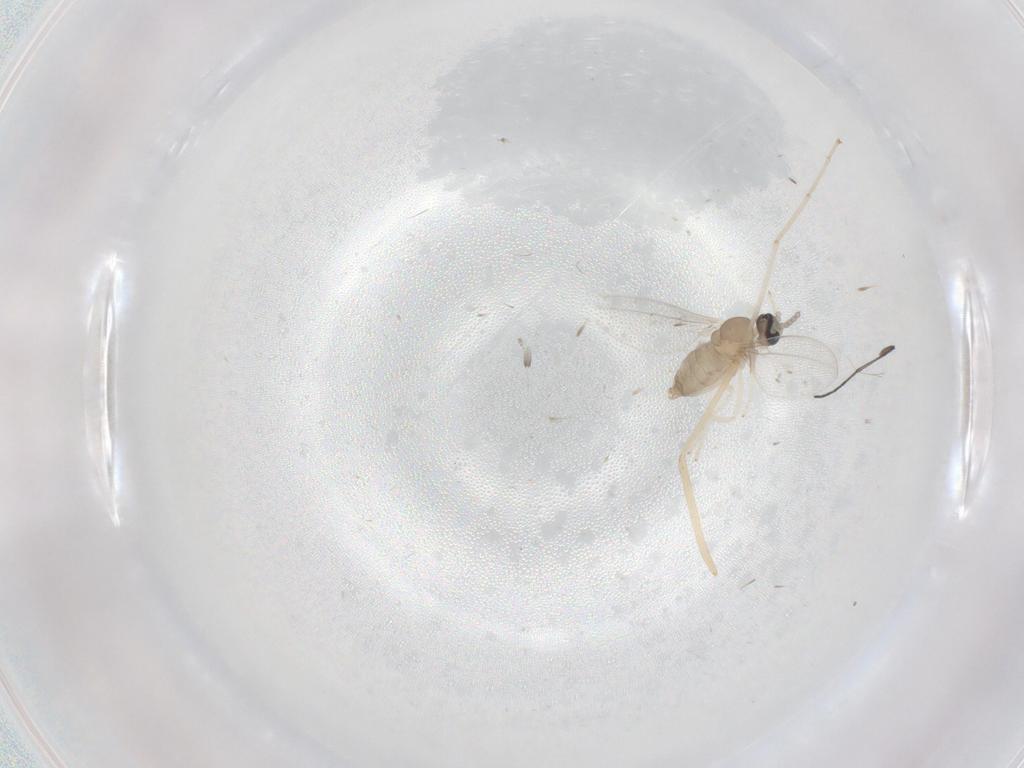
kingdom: Animalia
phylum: Arthropoda
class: Insecta
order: Diptera
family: Cecidomyiidae
